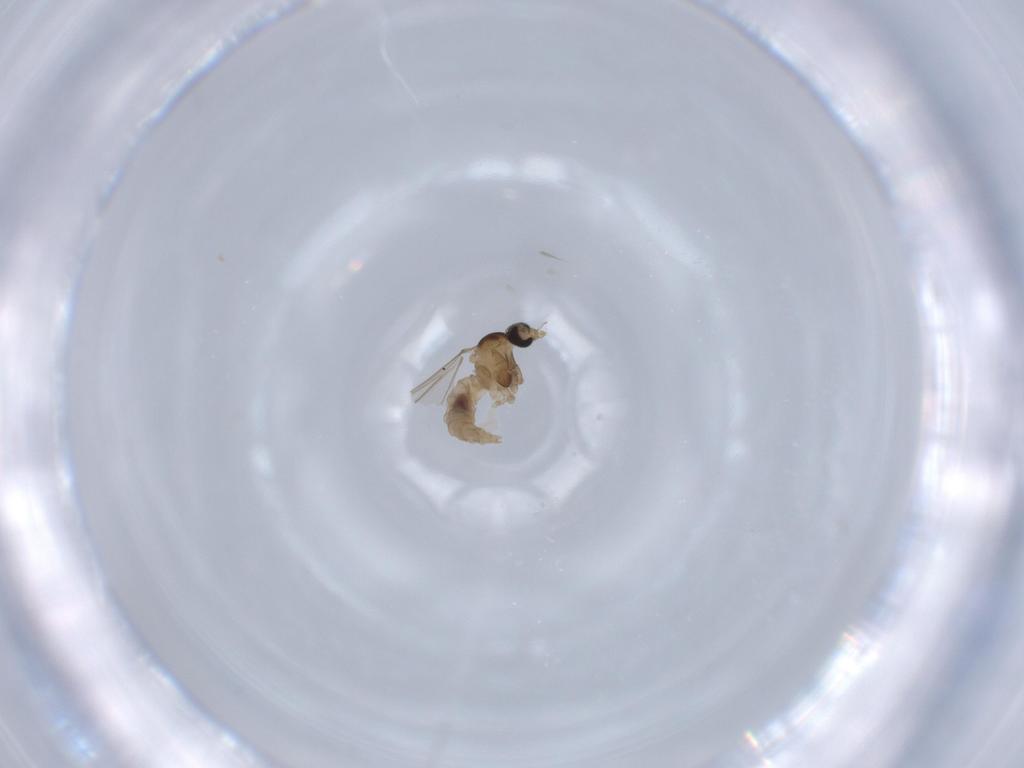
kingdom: Animalia
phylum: Arthropoda
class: Insecta
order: Diptera
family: Cecidomyiidae
